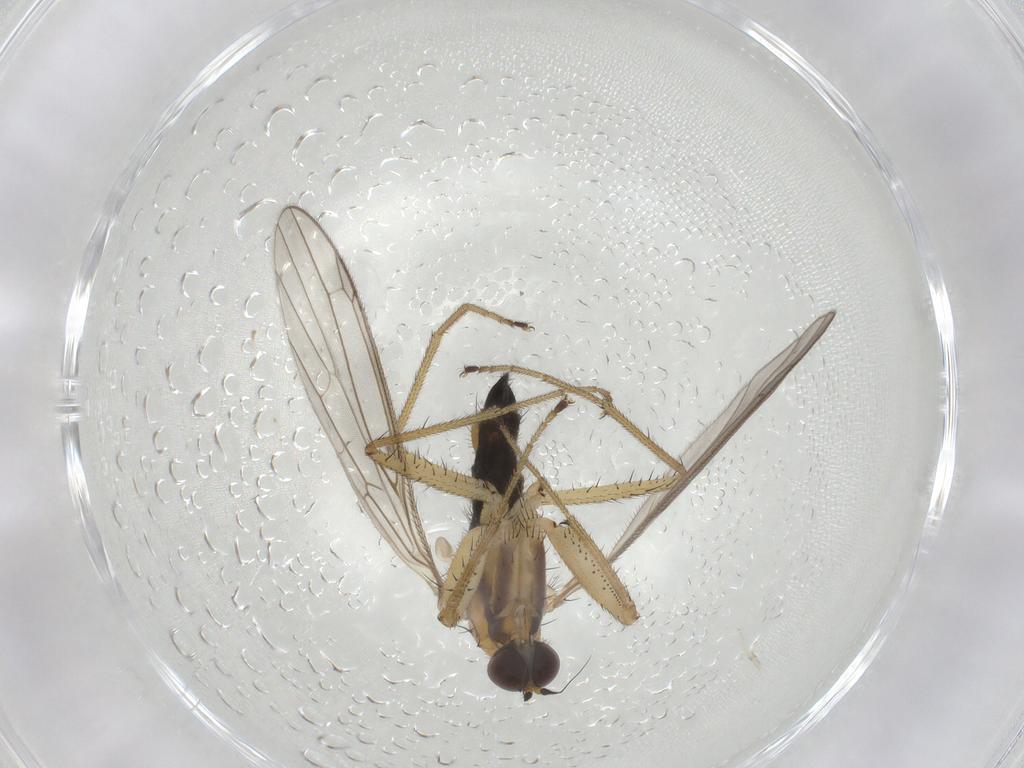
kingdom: Animalia
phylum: Arthropoda
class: Insecta
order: Diptera
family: Empididae
